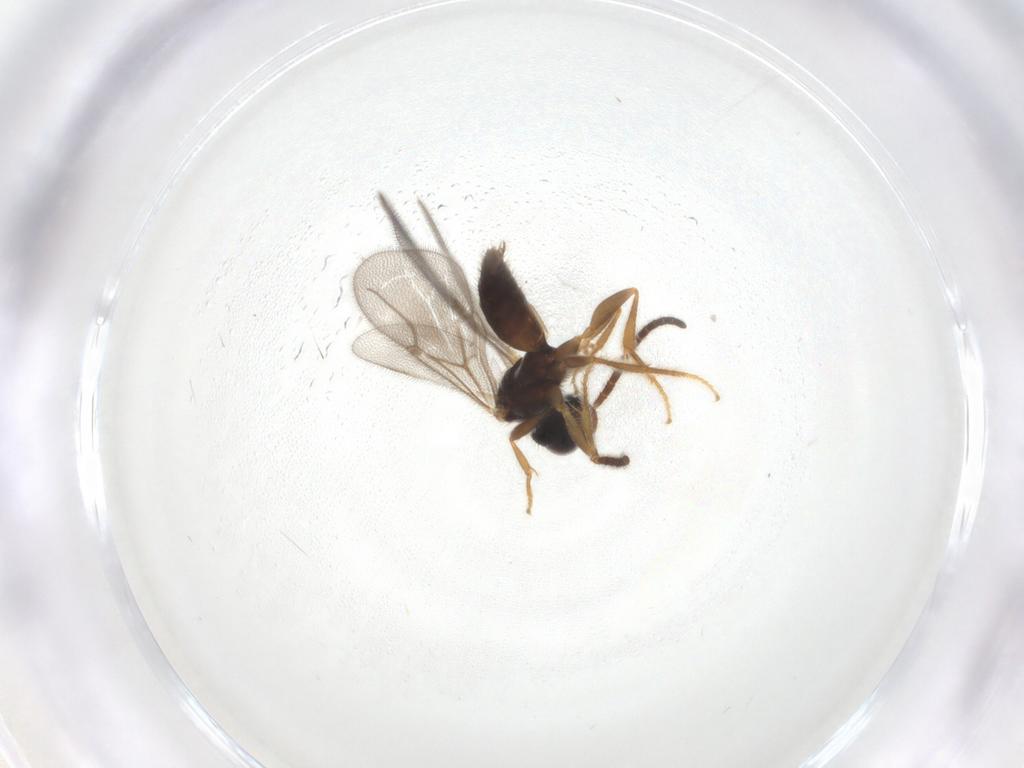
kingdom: Animalia
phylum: Arthropoda
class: Insecta
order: Hymenoptera
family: Bethylidae
